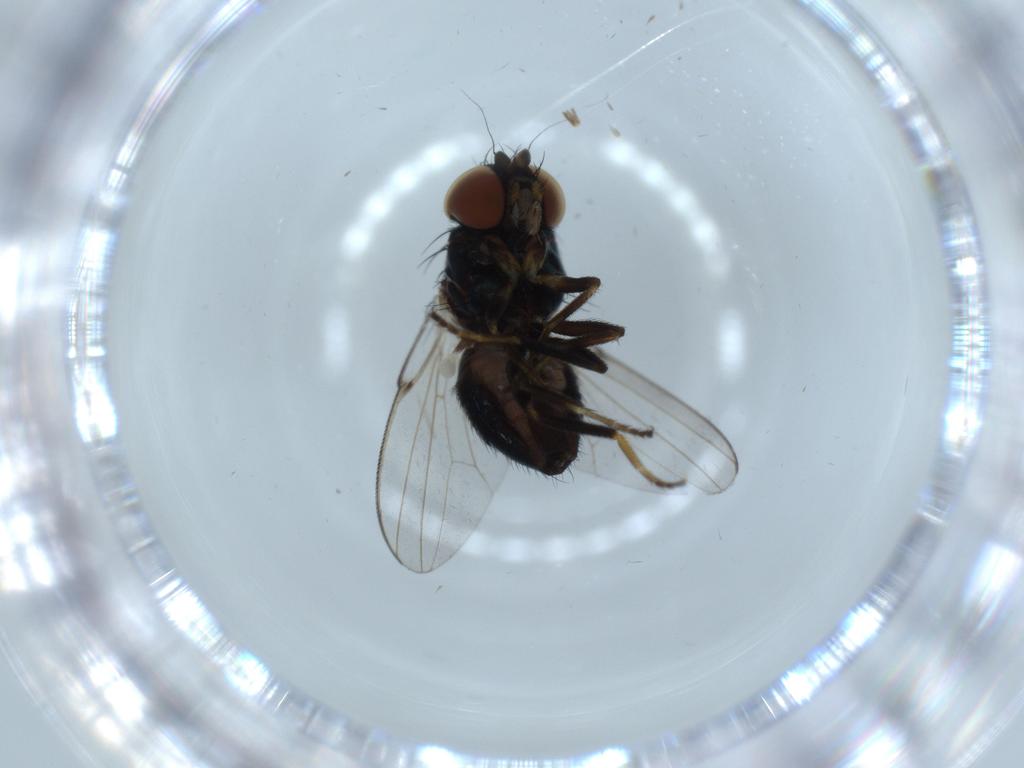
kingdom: Animalia
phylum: Arthropoda
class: Insecta
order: Diptera
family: Milichiidae
